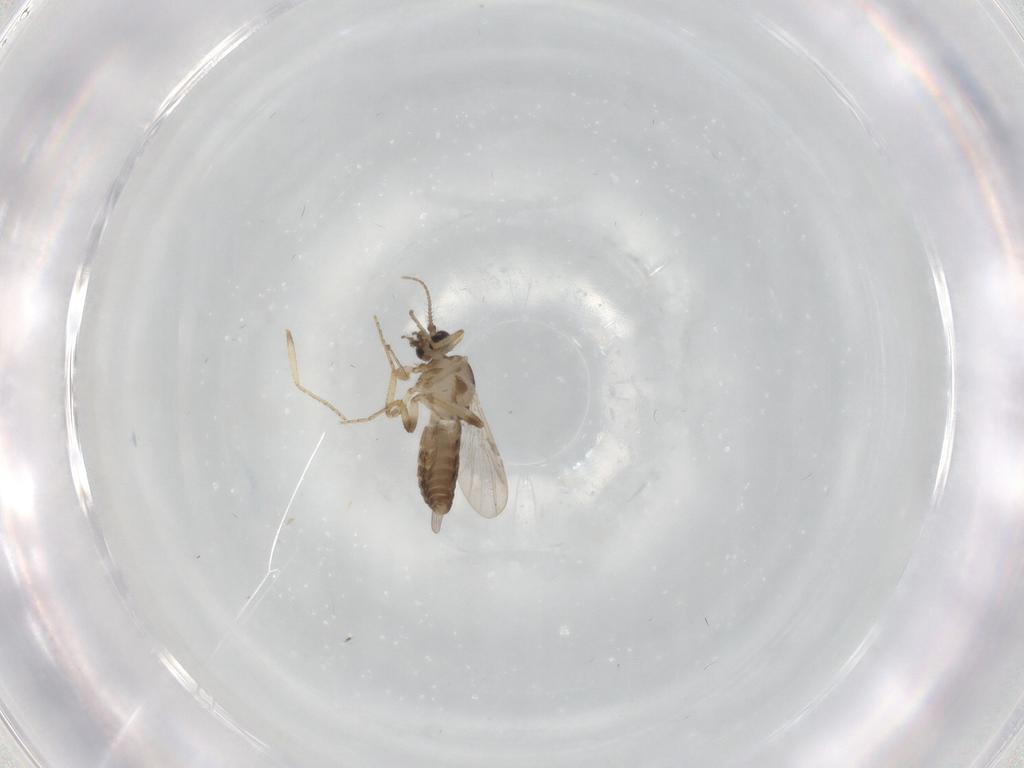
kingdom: Animalia
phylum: Arthropoda
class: Insecta
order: Diptera
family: Ceratopogonidae
